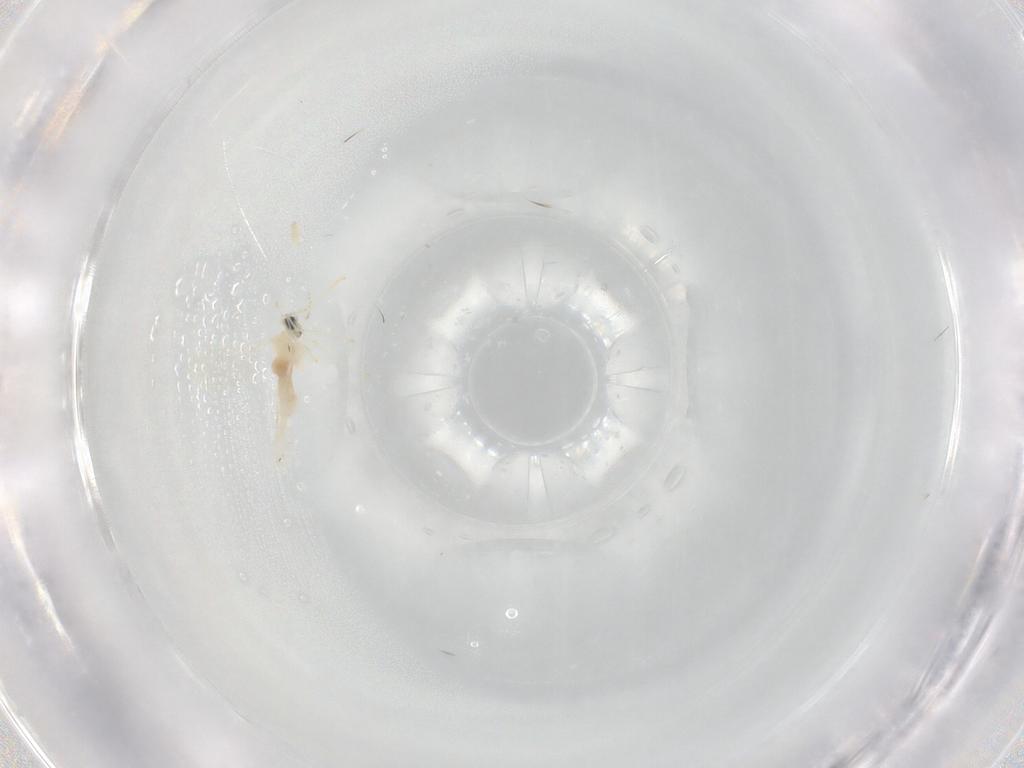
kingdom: Animalia
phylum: Arthropoda
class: Insecta
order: Diptera
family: Cecidomyiidae
